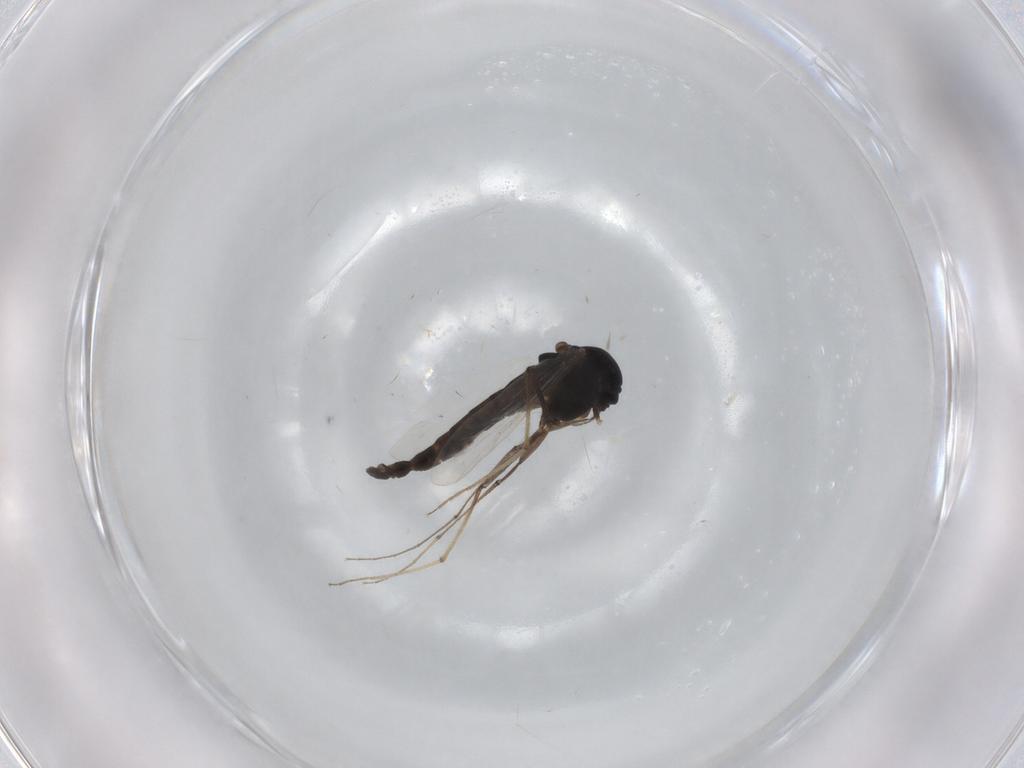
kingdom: Animalia
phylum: Arthropoda
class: Insecta
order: Diptera
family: Chironomidae
